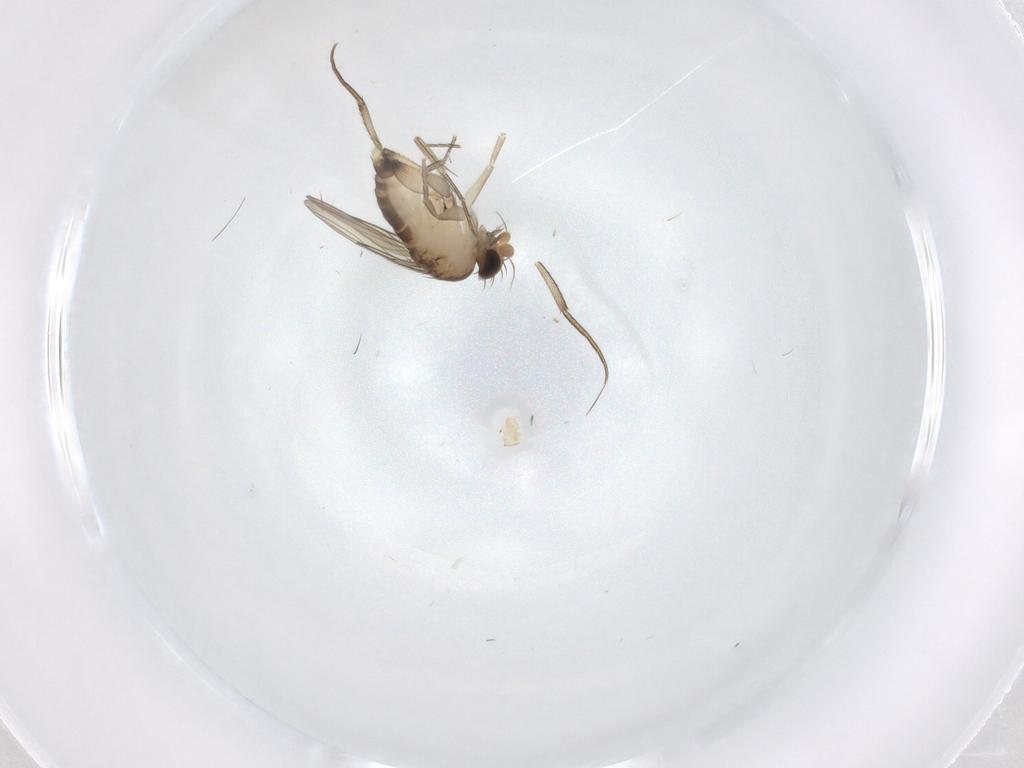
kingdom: Animalia
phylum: Arthropoda
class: Insecta
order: Diptera
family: Phoridae
